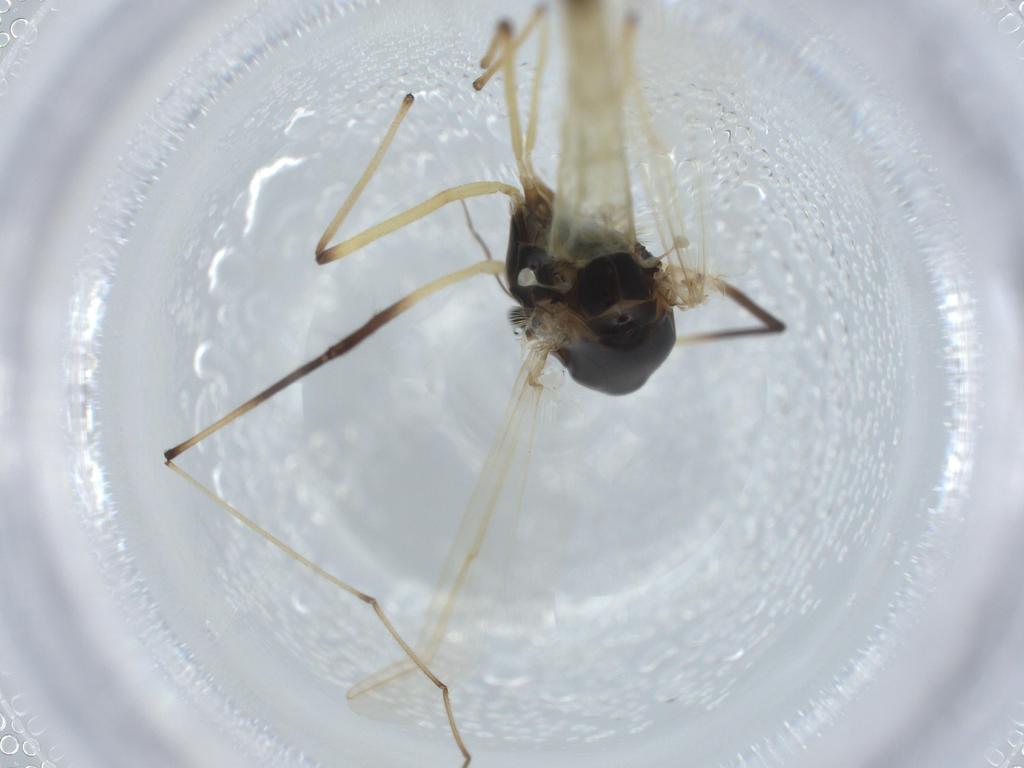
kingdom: Animalia
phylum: Arthropoda
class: Insecta
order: Diptera
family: Chironomidae
